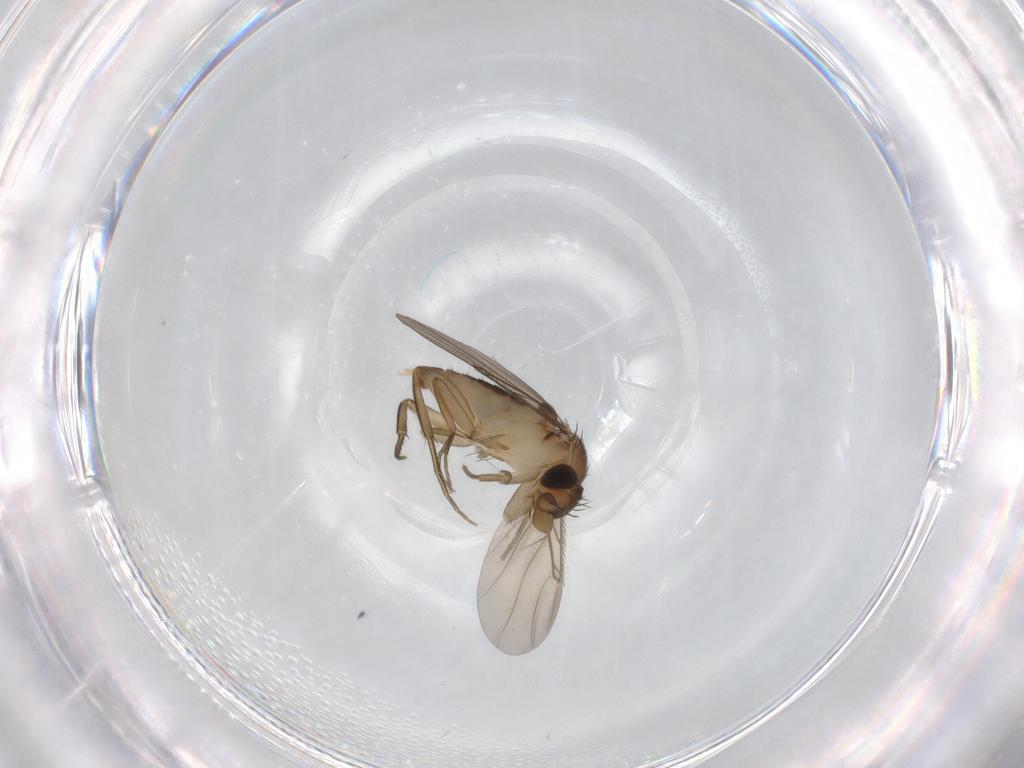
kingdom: Animalia
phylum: Arthropoda
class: Insecta
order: Diptera
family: Phoridae
